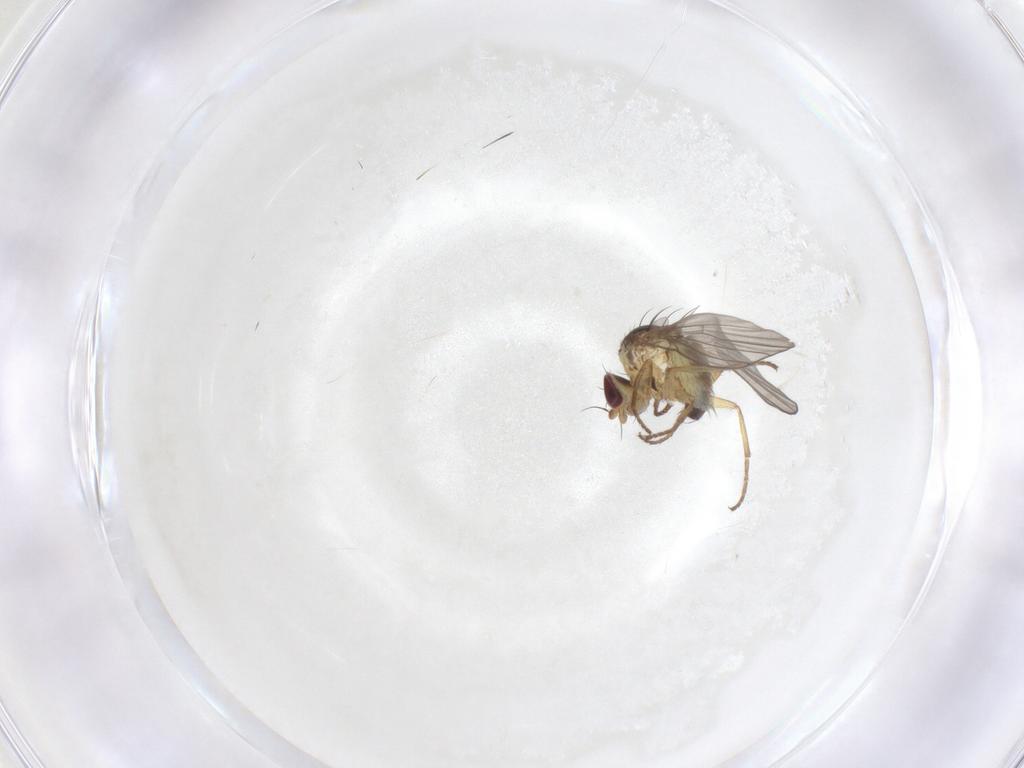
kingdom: Animalia
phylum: Arthropoda
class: Insecta
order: Diptera
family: Agromyzidae
